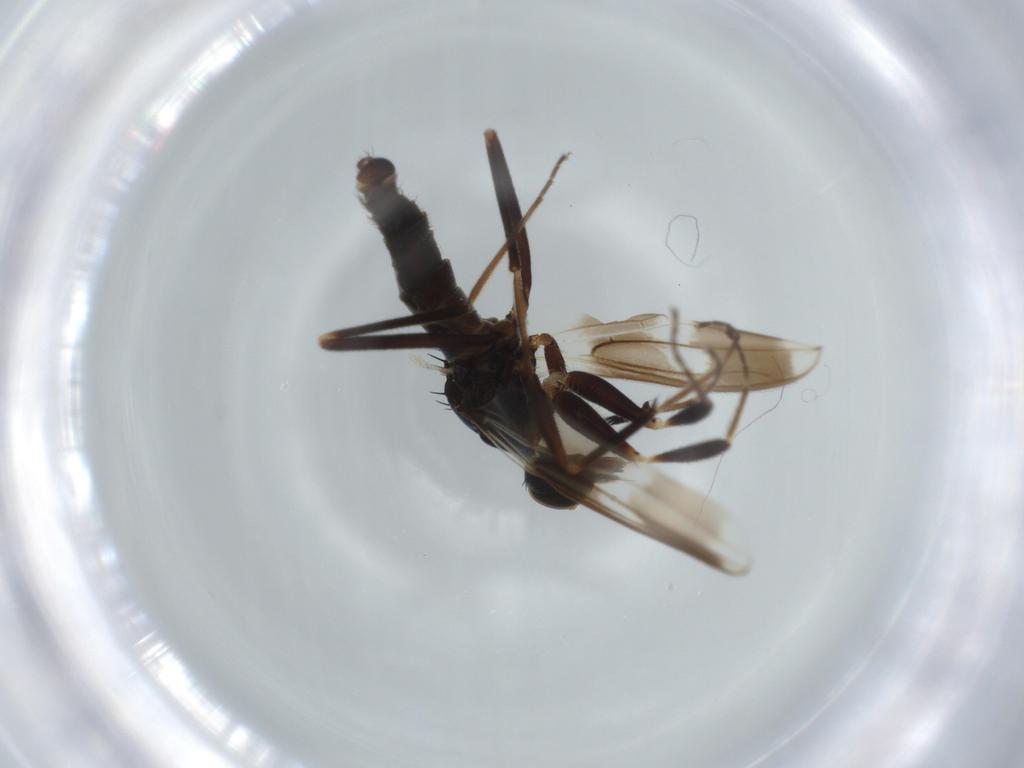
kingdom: Animalia
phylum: Arthropoda
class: Insecta
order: Diptera
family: Hybotidae
